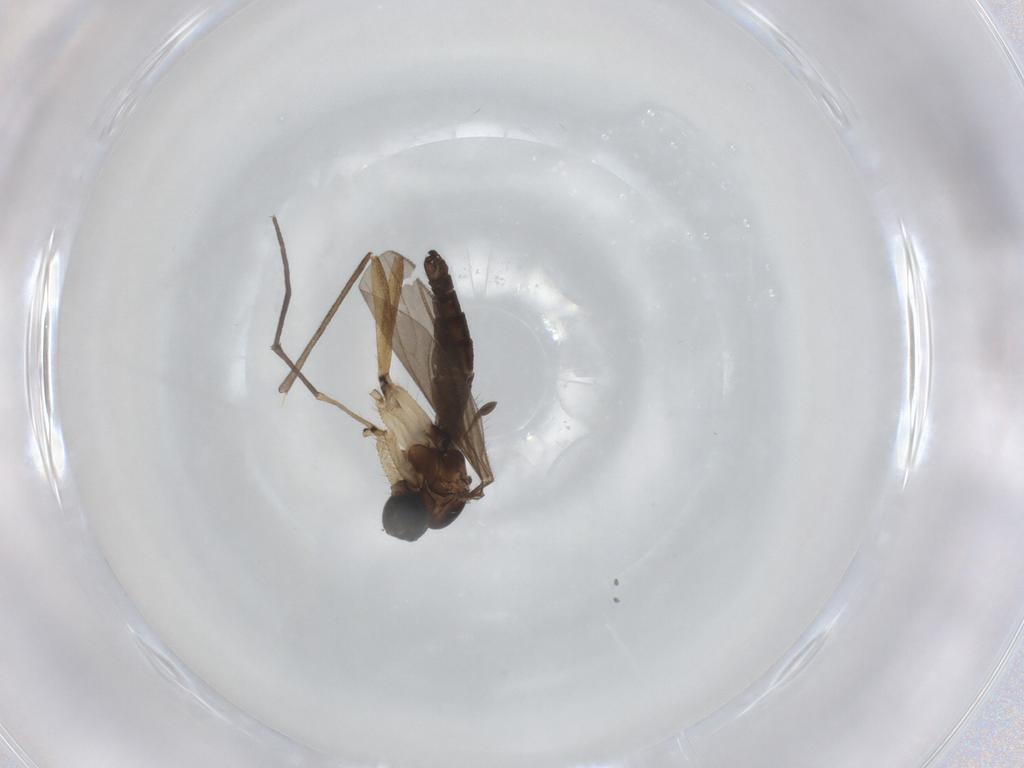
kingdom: Animalia
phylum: Arthropoda
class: Insecta
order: Diptera
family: Sciaridae
